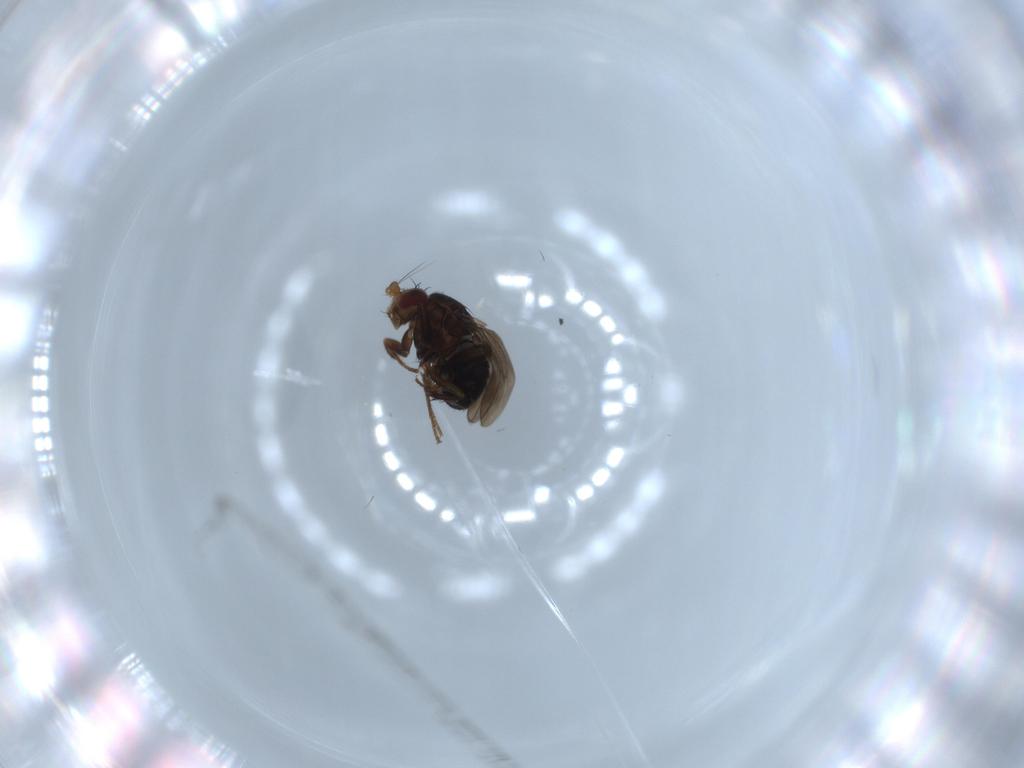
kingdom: Animalia
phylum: Arthropoda
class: Insecta
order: Diptera
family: Sphaeroceridae
